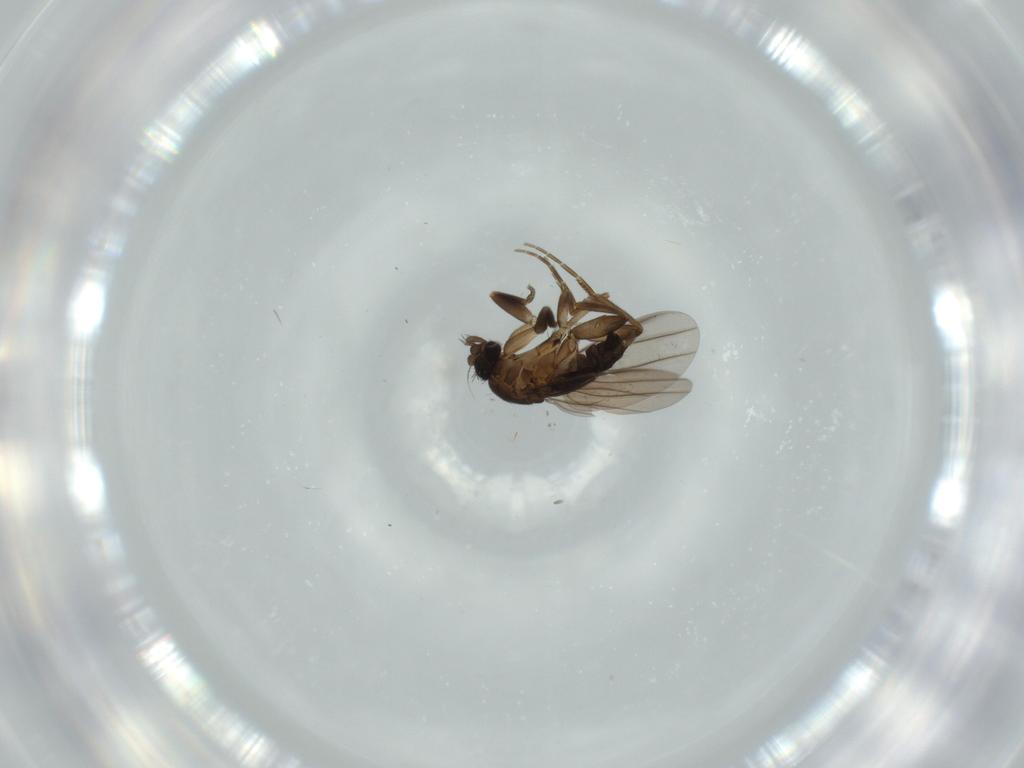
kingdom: Animalia
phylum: Arthropoda
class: Insecta
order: Diptera
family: Phoridae
